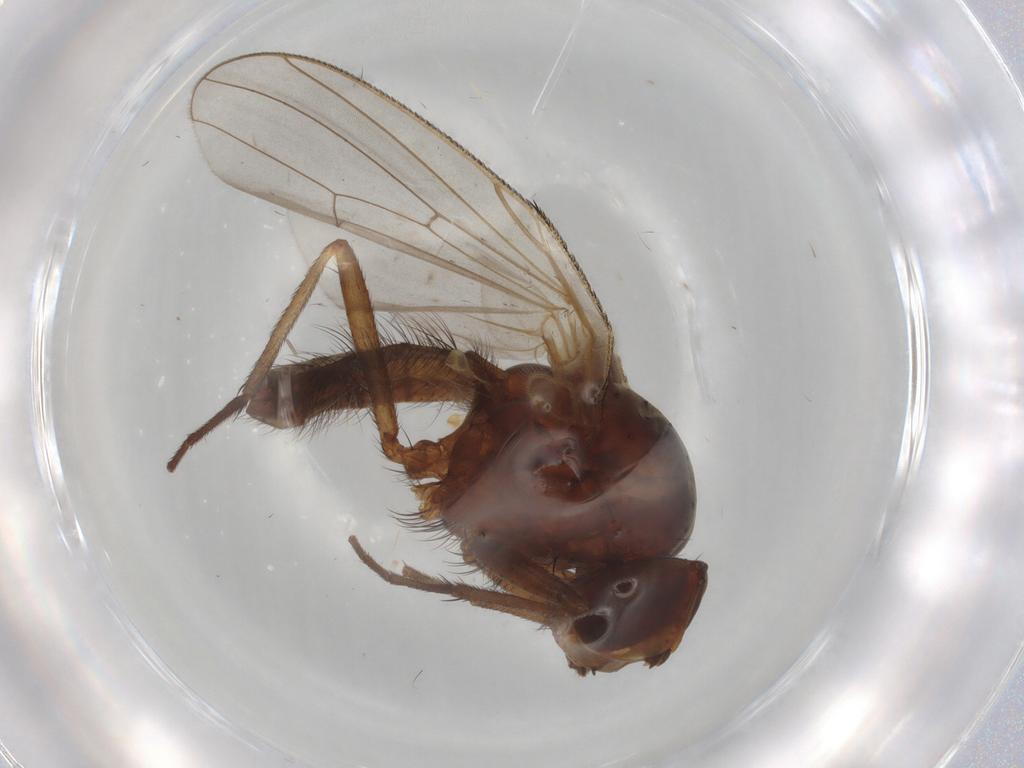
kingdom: Animalia
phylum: Arthropoda
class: Insecta
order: Diptera
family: Anthomyiidae
